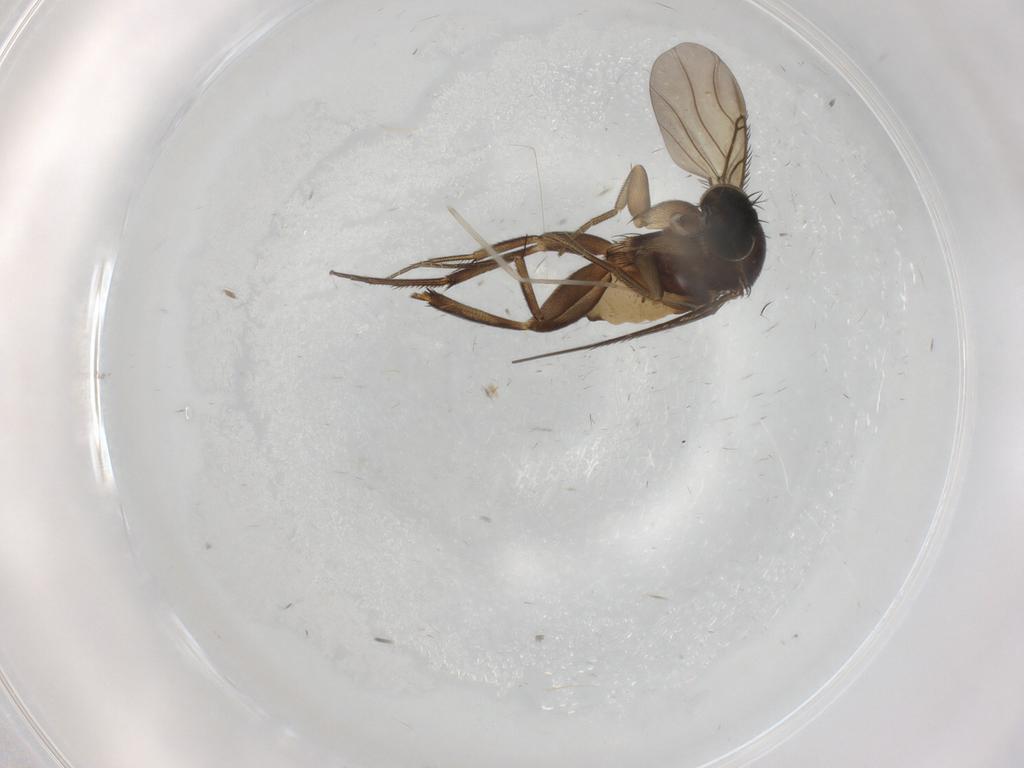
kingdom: Animalia
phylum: Arthropoda
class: Insecta
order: Diptera
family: Phoridae
